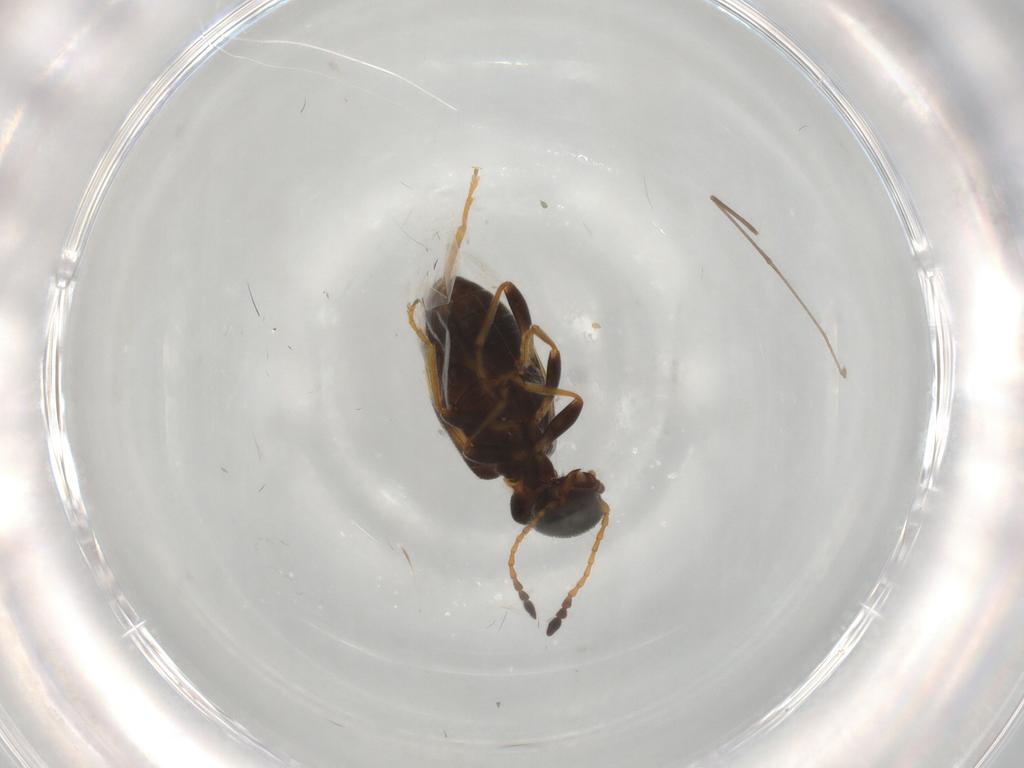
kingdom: Animalia
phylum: Arthropoda
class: Insecta
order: Coleoptera
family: Anthicidae
